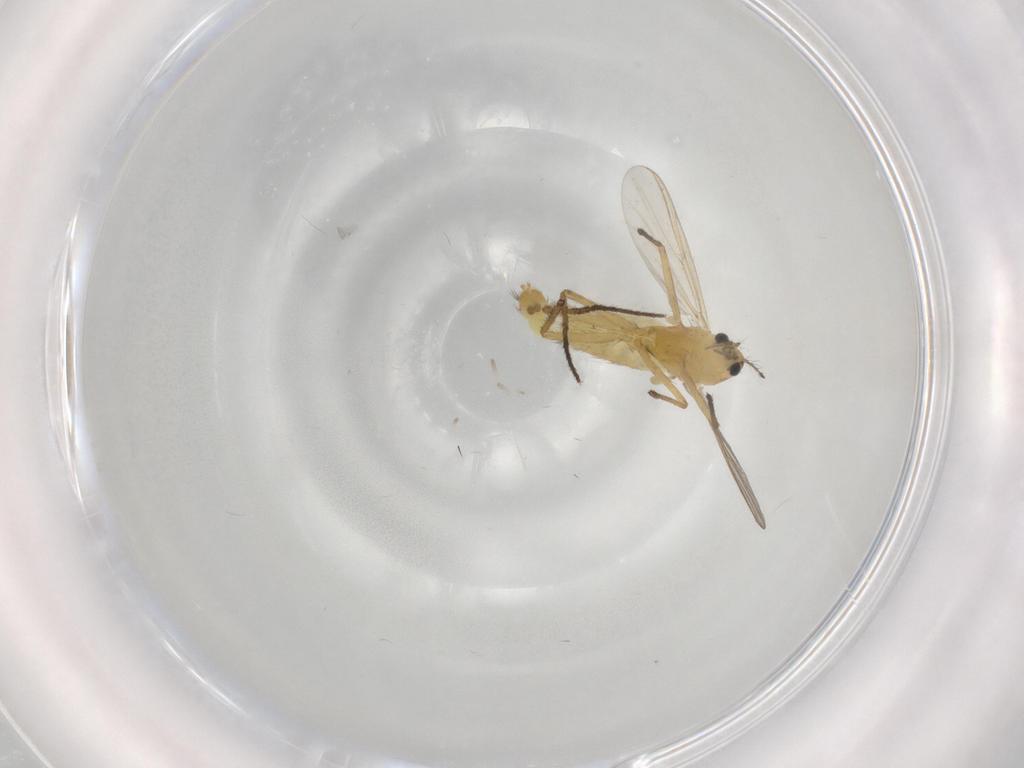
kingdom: Animalia
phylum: Arthropoda
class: Insecta
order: Diptera
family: Chironomidae
